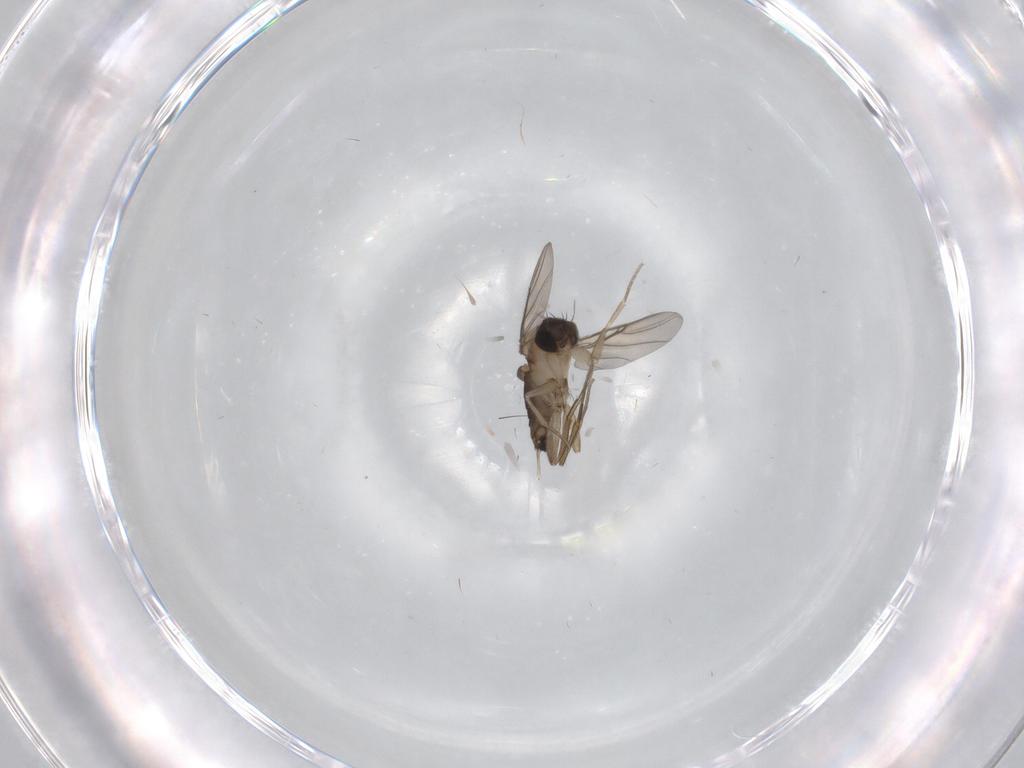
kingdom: Animalia
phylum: Arthropoda
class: Insecta
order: Diptera
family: Phoridae
